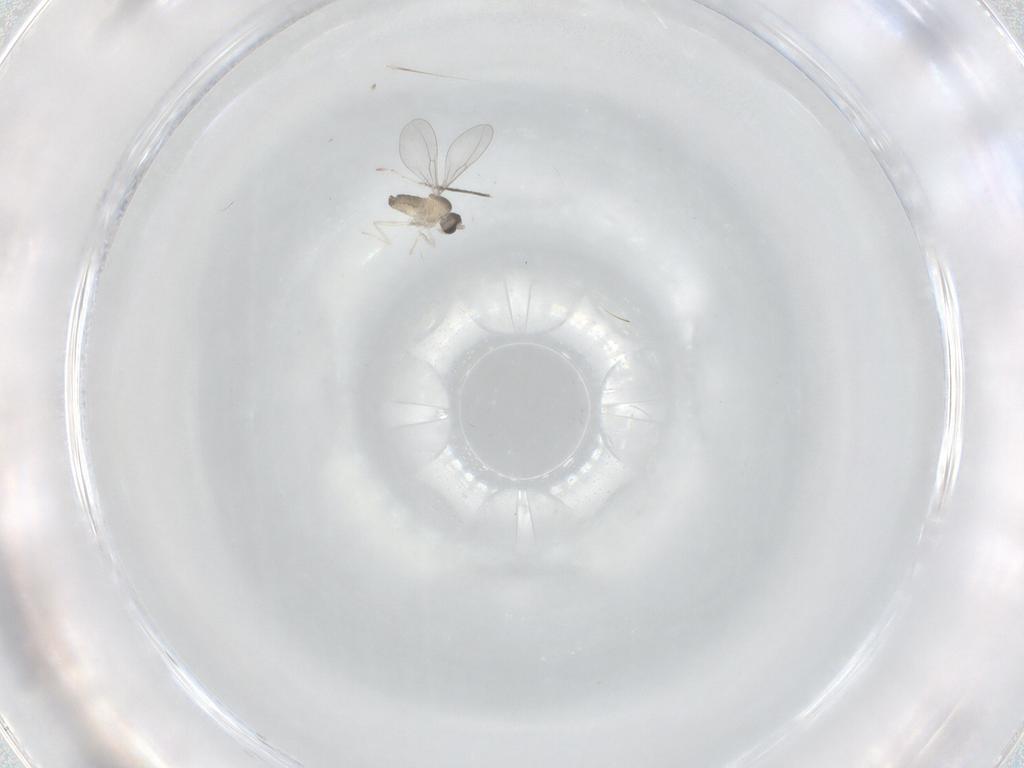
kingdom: Animalia
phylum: Arthropoda
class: Insecta
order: Diptera
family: Cecidomyiidae
